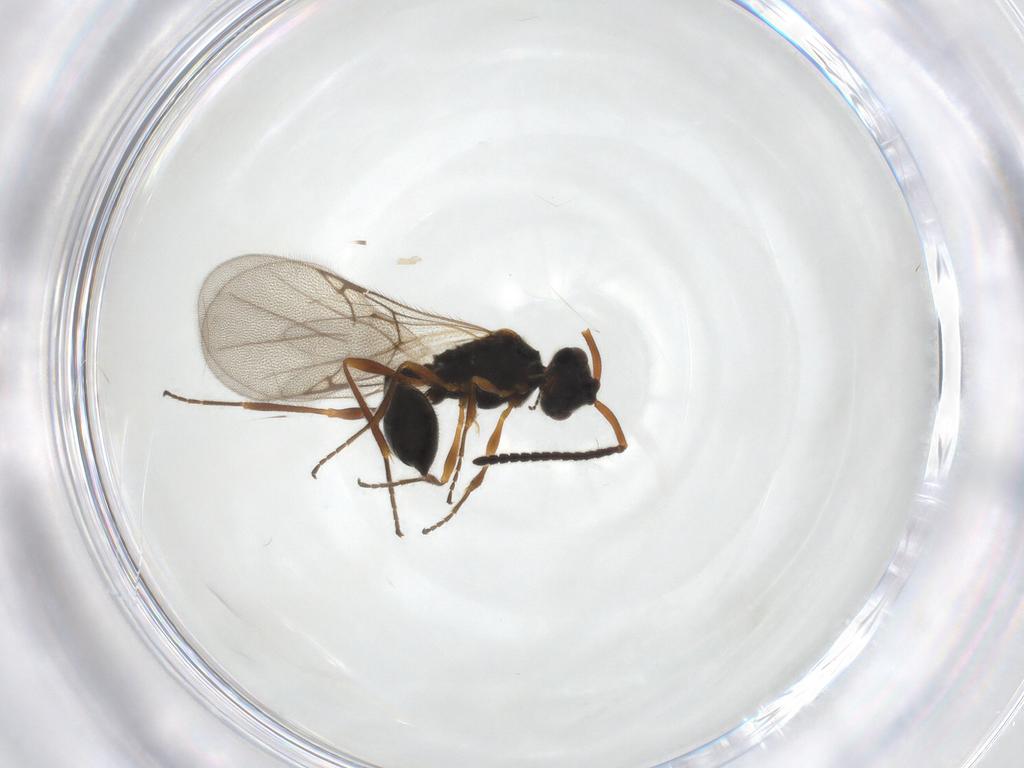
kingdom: Animalia
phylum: Arthropoda
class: Insecta
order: Hymenoptera
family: Diapriidae
